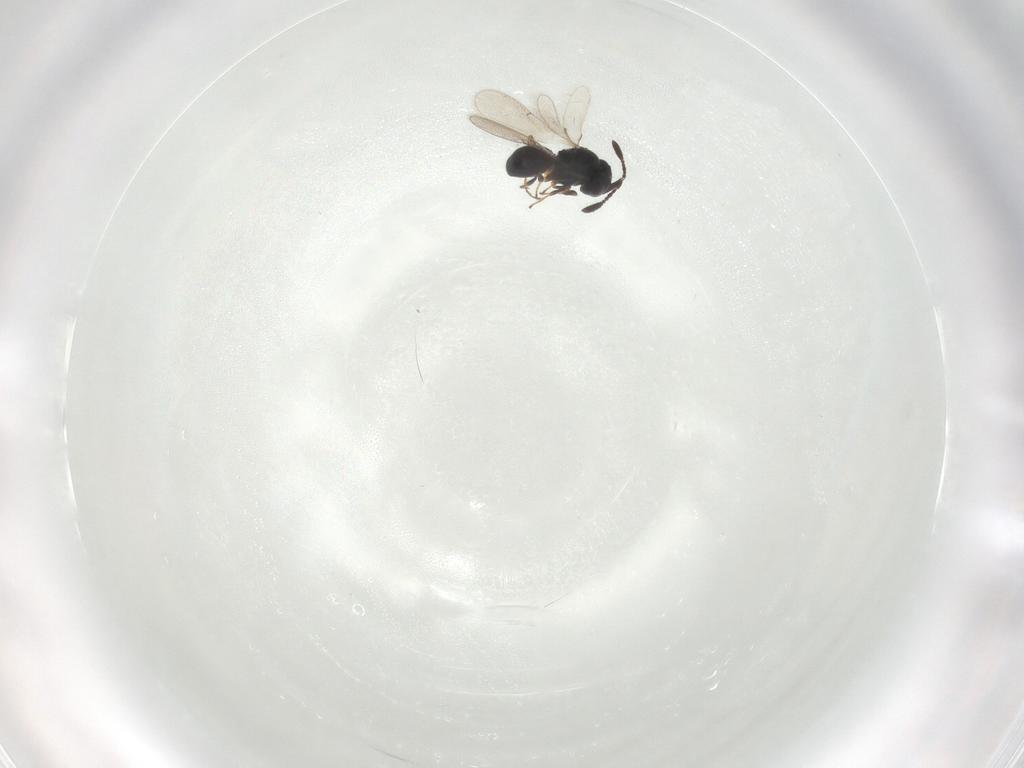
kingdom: Animalia
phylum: Arthropoda
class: Insecta
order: Hymenoptera
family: Scelionidae
